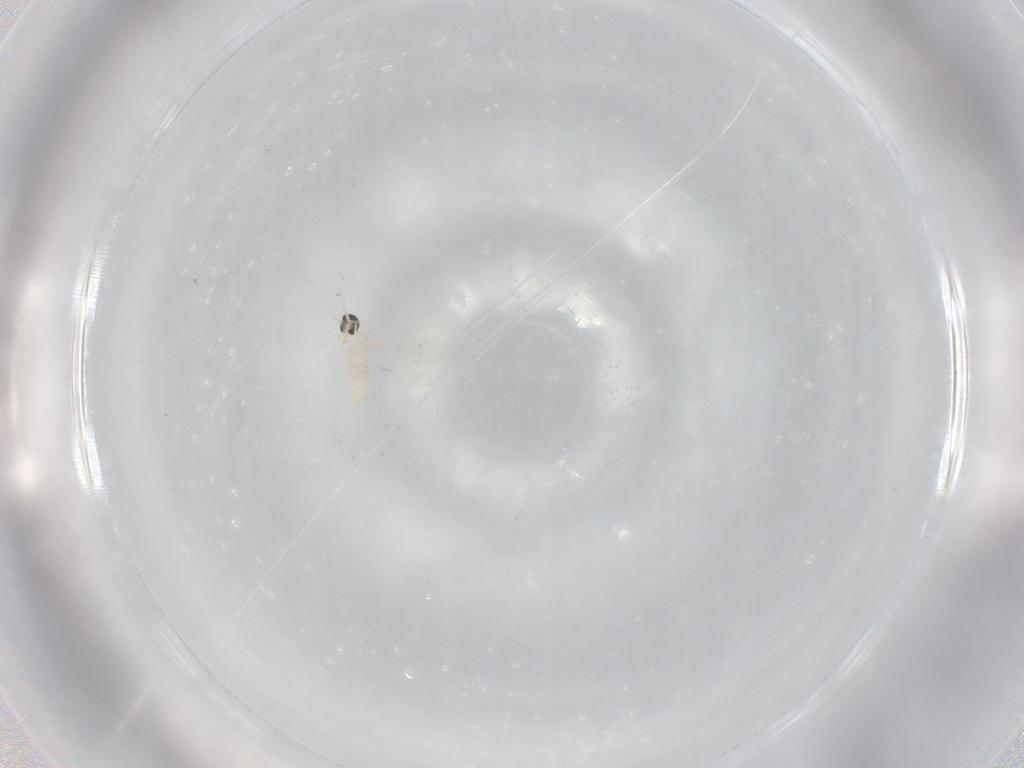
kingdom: Animalia
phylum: Arthropoda
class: Insecta
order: Diptera
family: Cecidomyiidae
